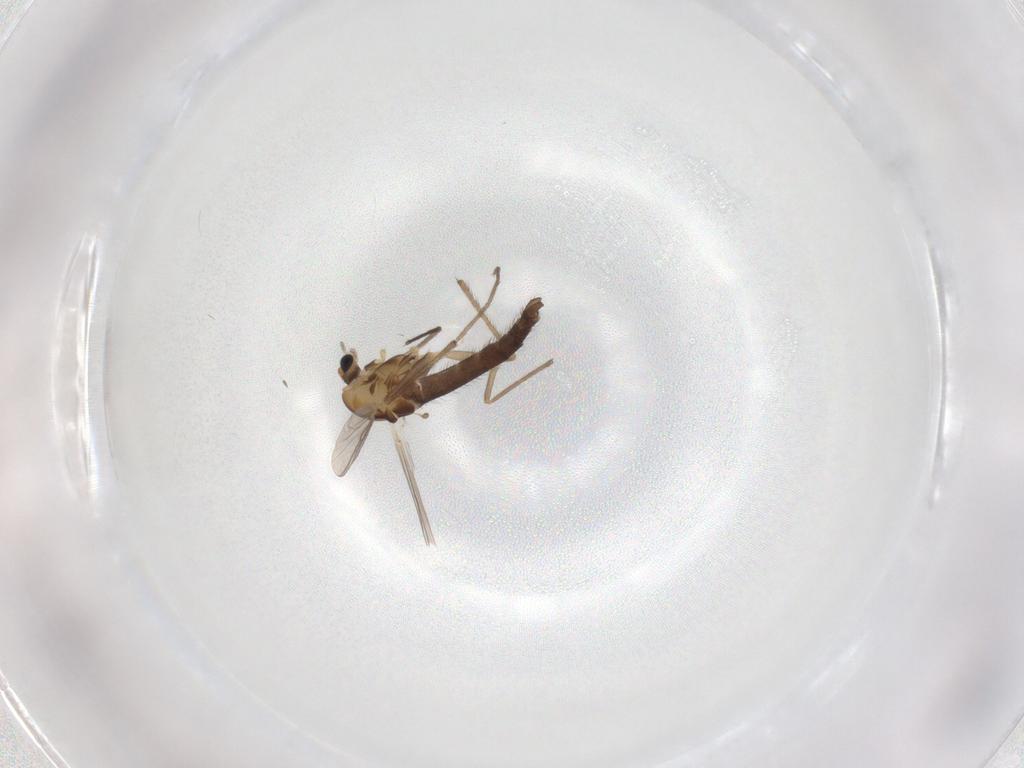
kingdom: Animalia
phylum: Arthropoda
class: Insecta
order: Diptera
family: Chironomidae
